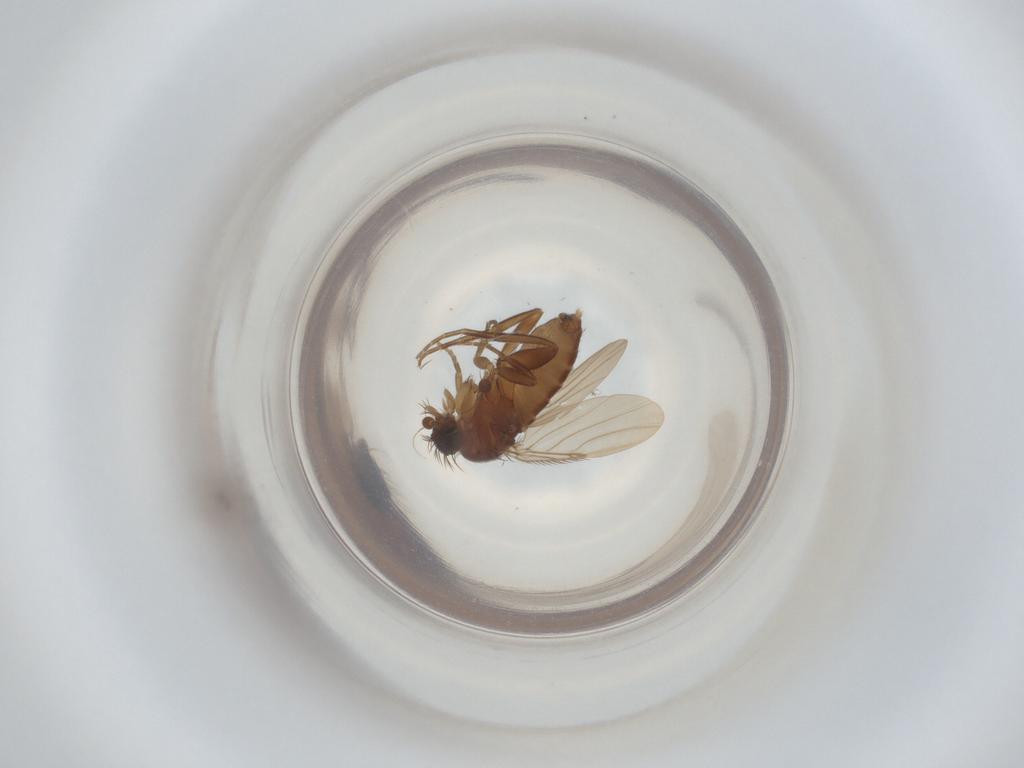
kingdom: Animalia
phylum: Arthropoda
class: Insecta
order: Diptera
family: Phoridae
